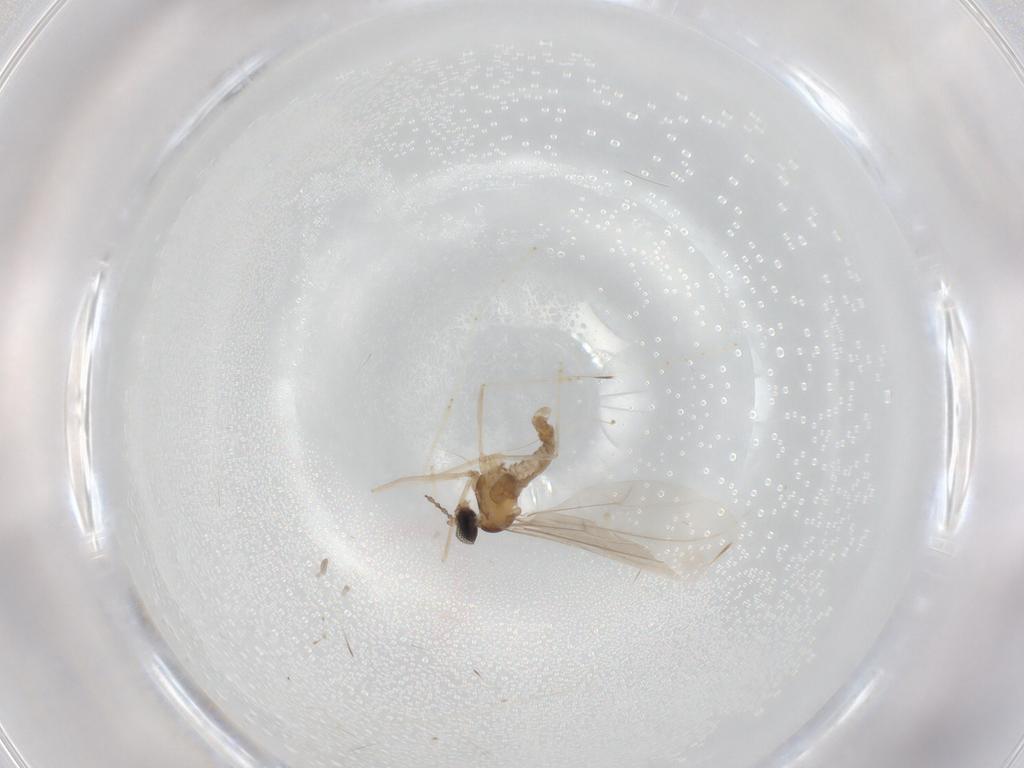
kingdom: Animalia
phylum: Arthropoda
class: Insecta
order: Diptera
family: Cecidomyiidae
